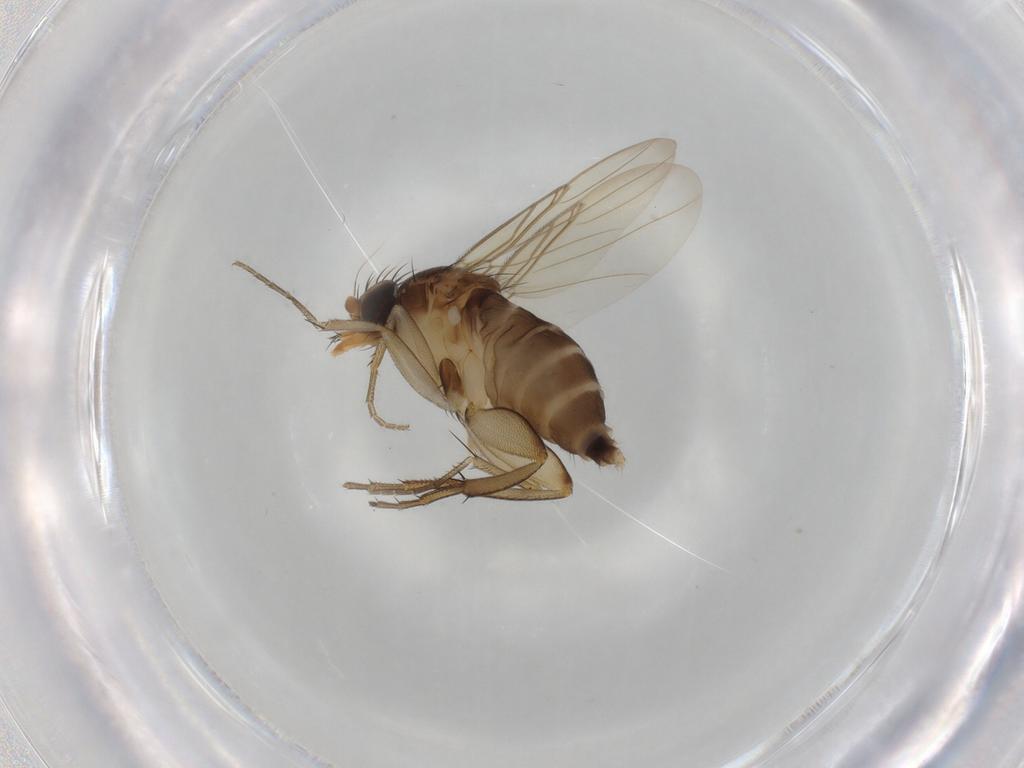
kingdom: Animalia
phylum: Arthropoda
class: Insecta
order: Diptera
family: Phoridae
